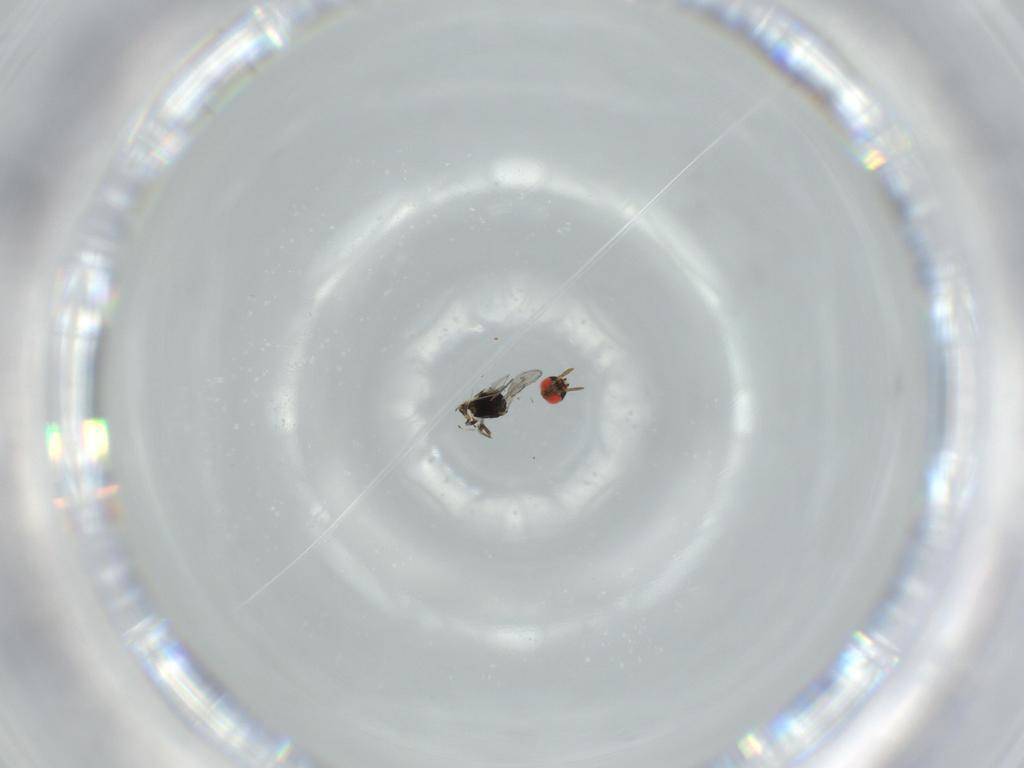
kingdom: Animalia
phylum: Arthropoda
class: Insecta
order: Hymenoptera
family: Azotidae
